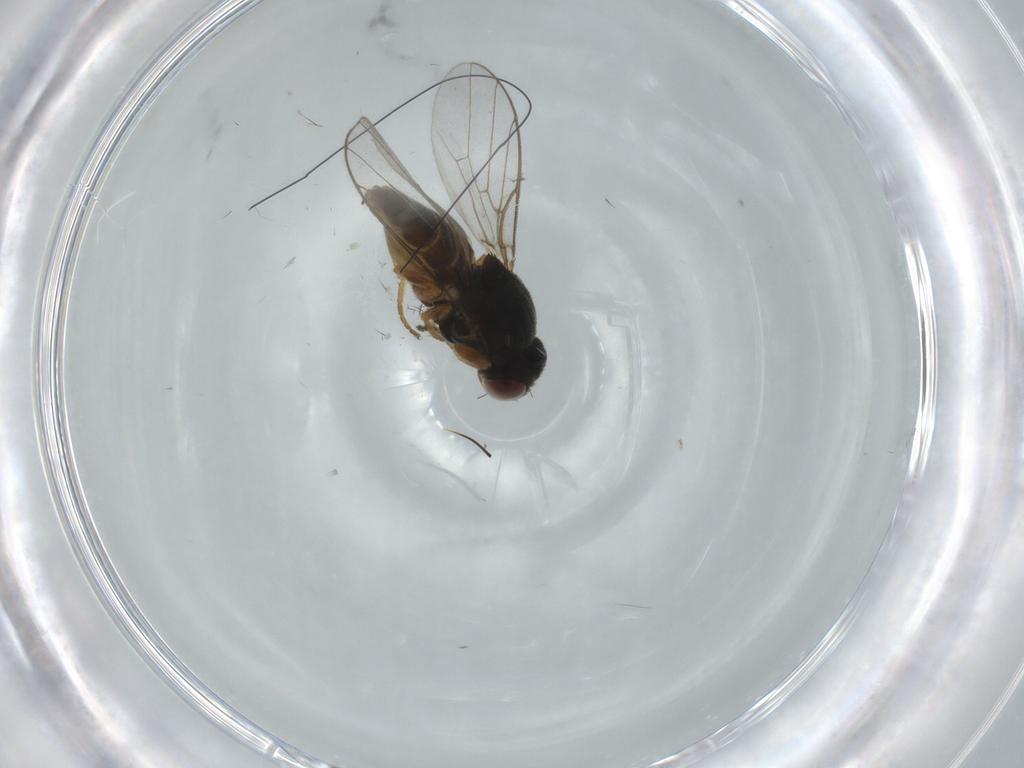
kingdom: Animalia
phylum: Arthropoda
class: Insecta
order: Diptera
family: Chloropidae
